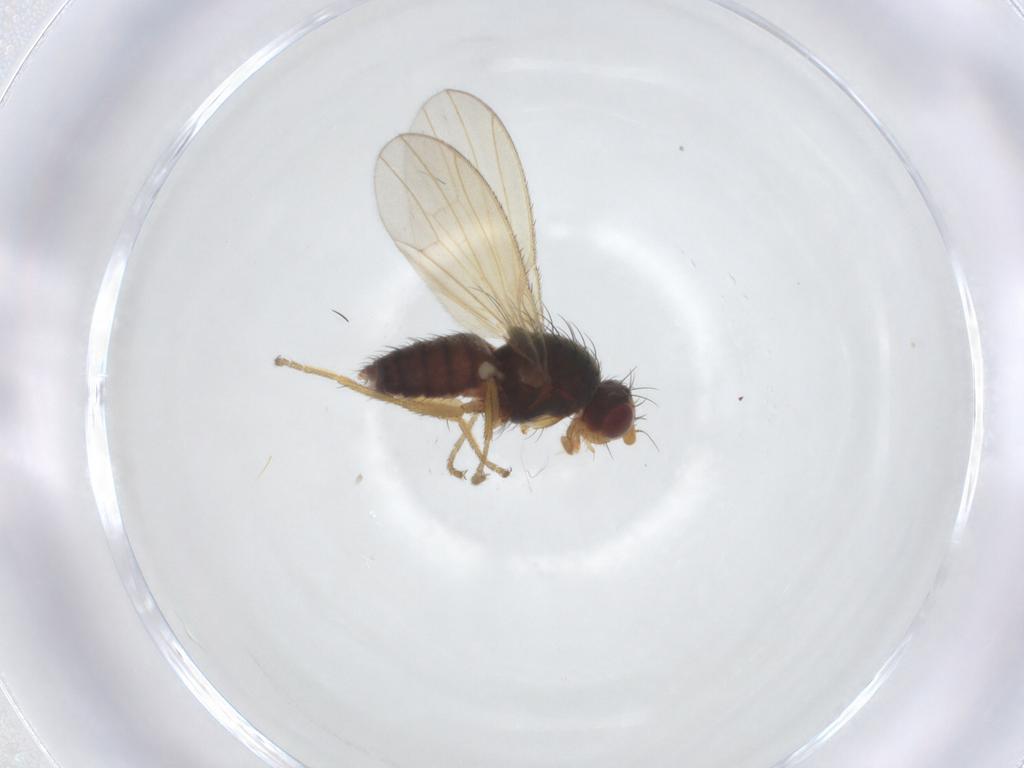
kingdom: Animalia
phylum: Arthropoda
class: Insecta
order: Diptera
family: Heleomyzidae
